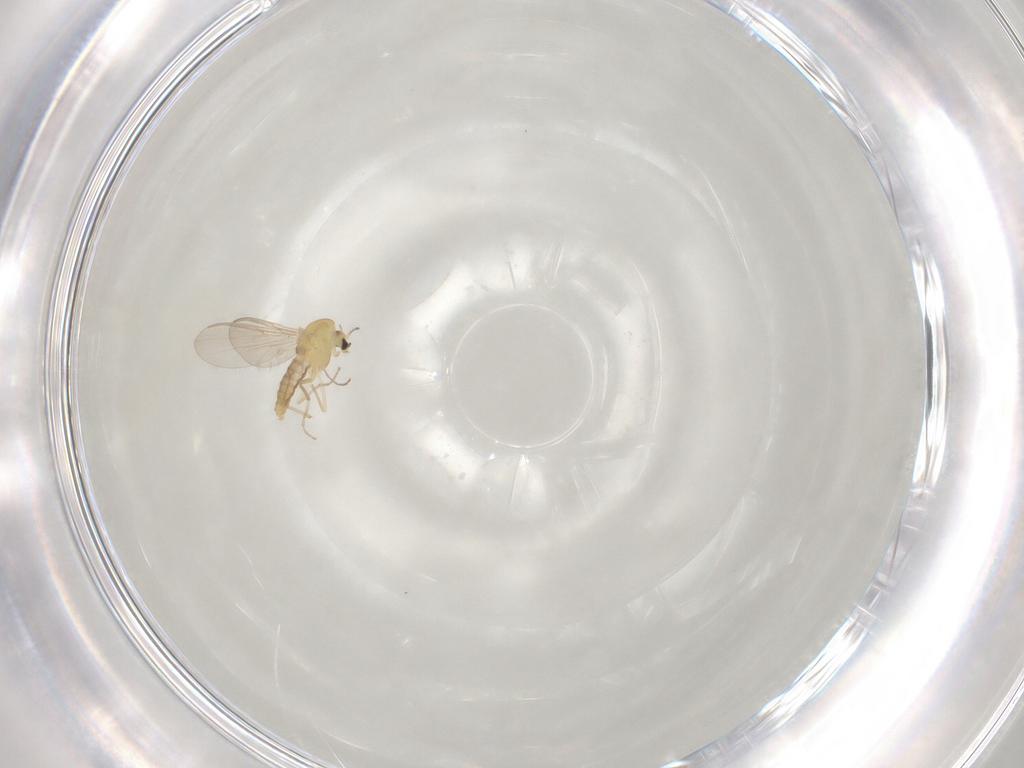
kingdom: Animalia
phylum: Arthropoda
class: Insecta
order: Diptera
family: Chironomidae
